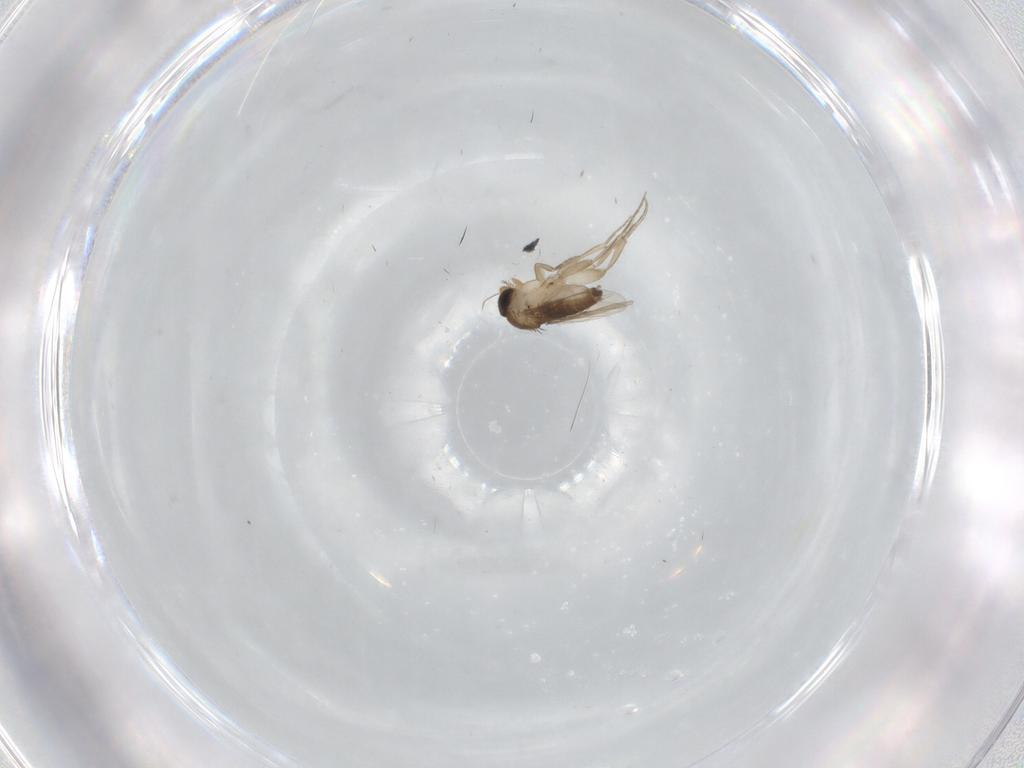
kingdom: Animalia
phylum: Arthropoda
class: Insecta
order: Diptera
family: Phoridae
